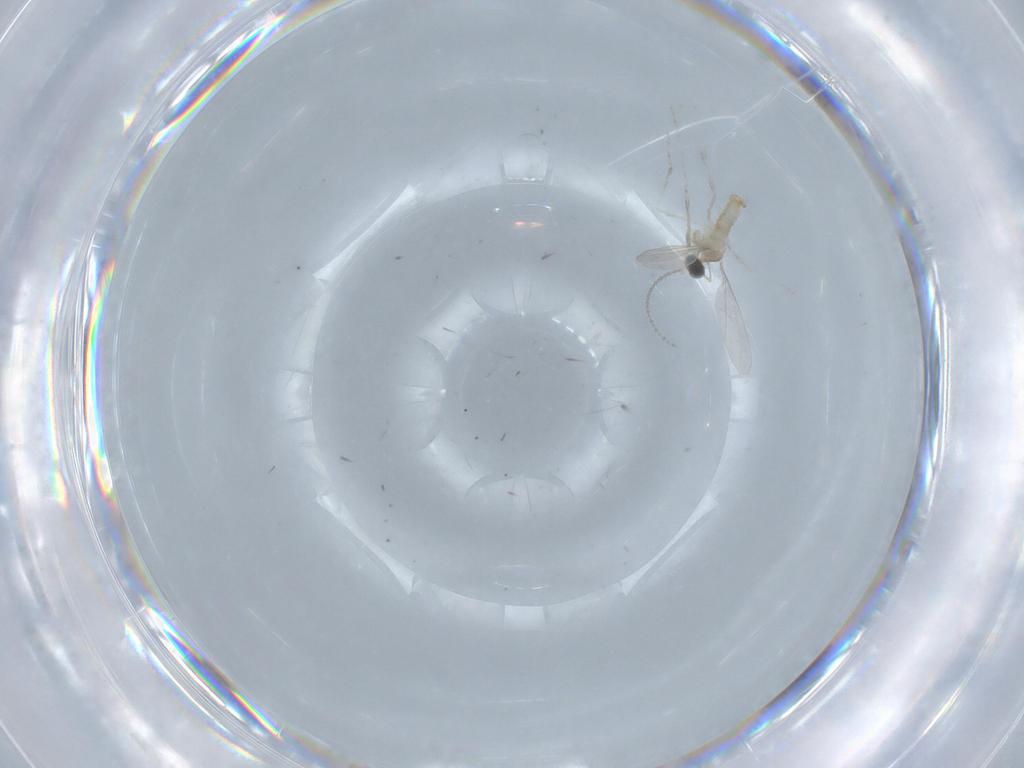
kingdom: Animalia
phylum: Arthropoda
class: Insecta
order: Diptera
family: Cecidomyiidae
